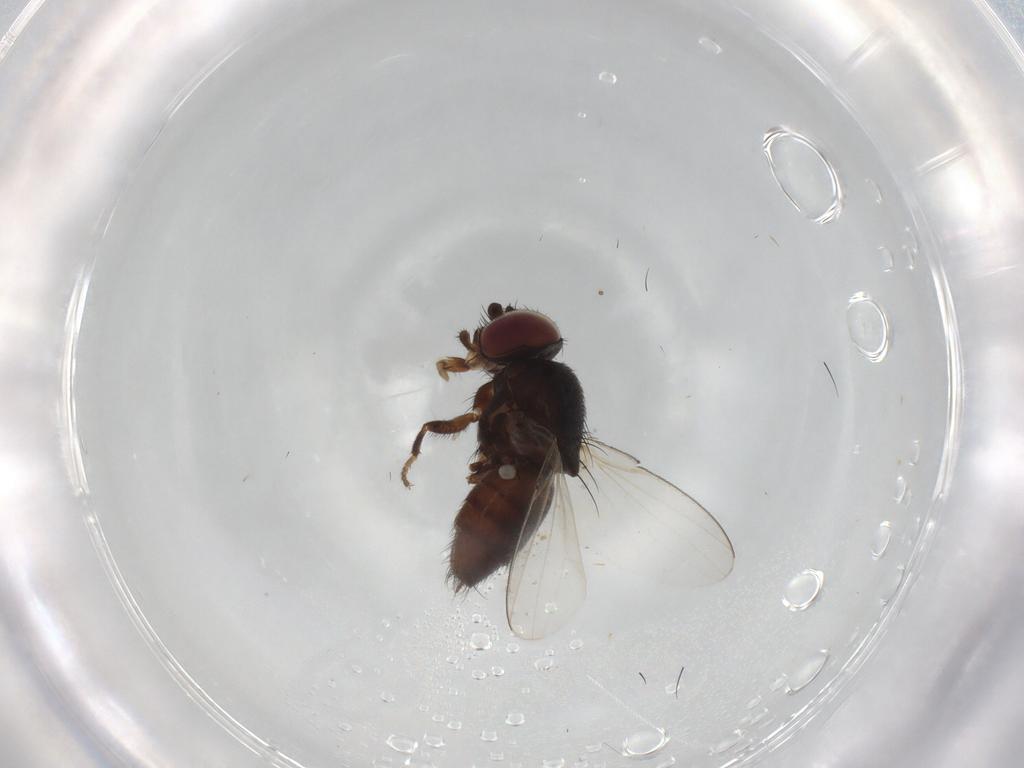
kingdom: Animalia
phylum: Arthropoda
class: Insecta
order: Diptera
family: Milichiidae
